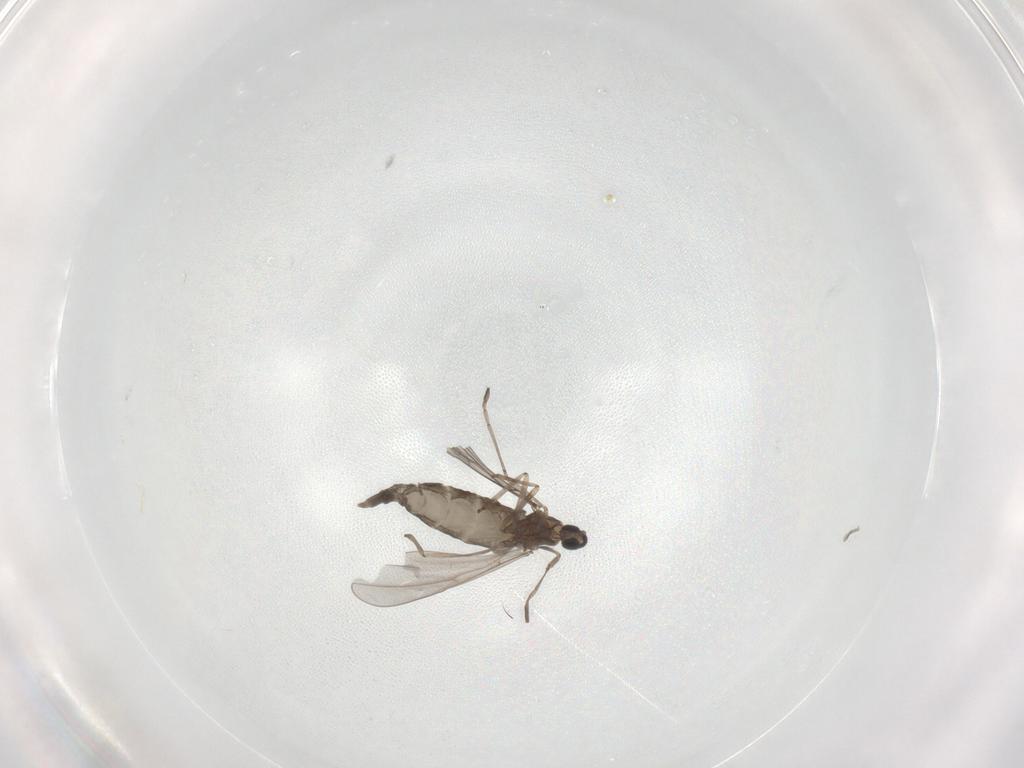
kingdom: Animalia
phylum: Arthropoda
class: Insecta
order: Diptera
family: Cecidomyiidae
